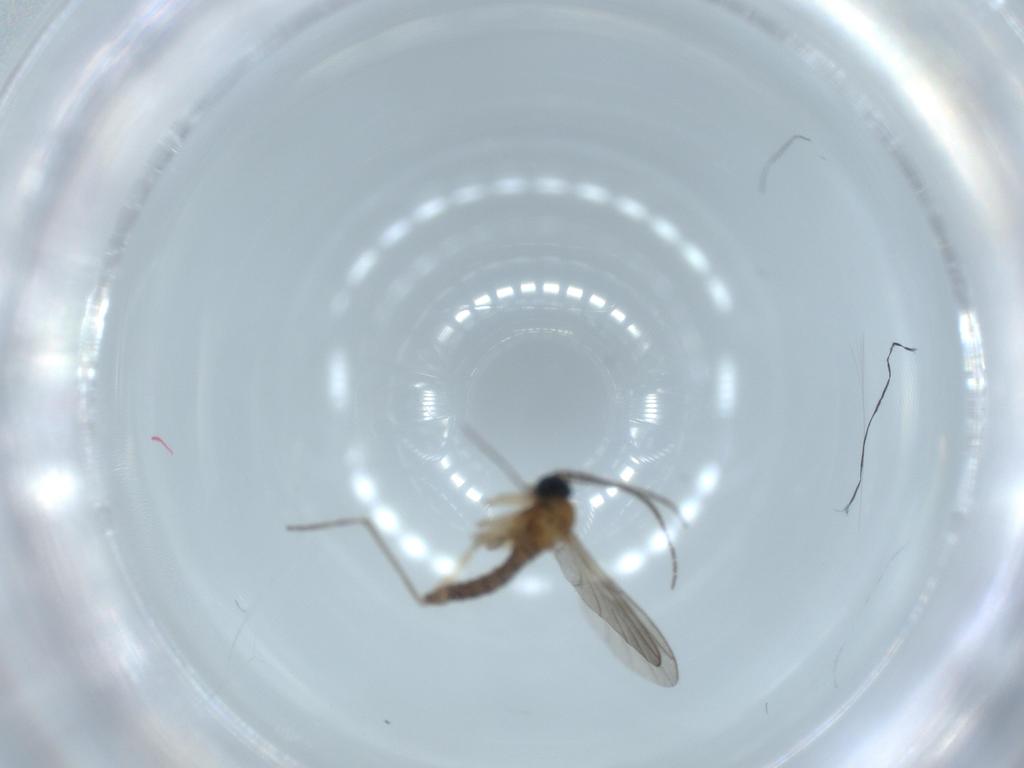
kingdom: Animalia
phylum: Arthropoda
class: Insecta
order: Diptera
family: Sciaridae
